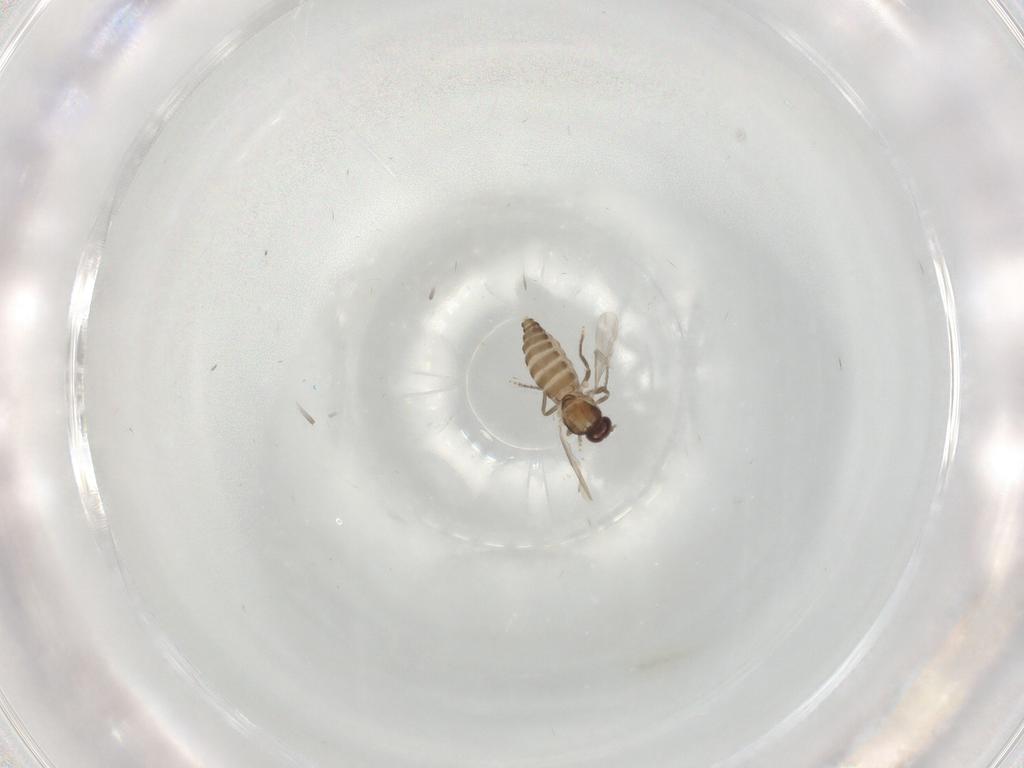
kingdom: Animalia
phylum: Arthropoda
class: Insecta
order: Diptera
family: Ceratopogonidae
